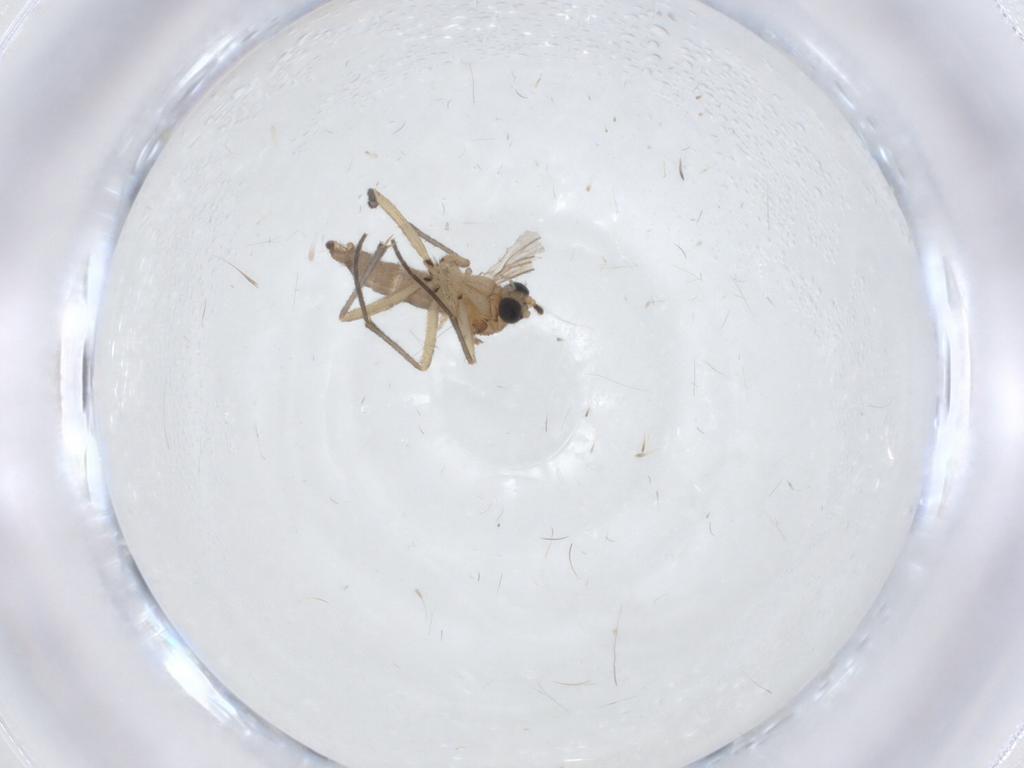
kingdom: Animalia
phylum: Arthropoda
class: Insecta
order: Diptera
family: Sciaridae
